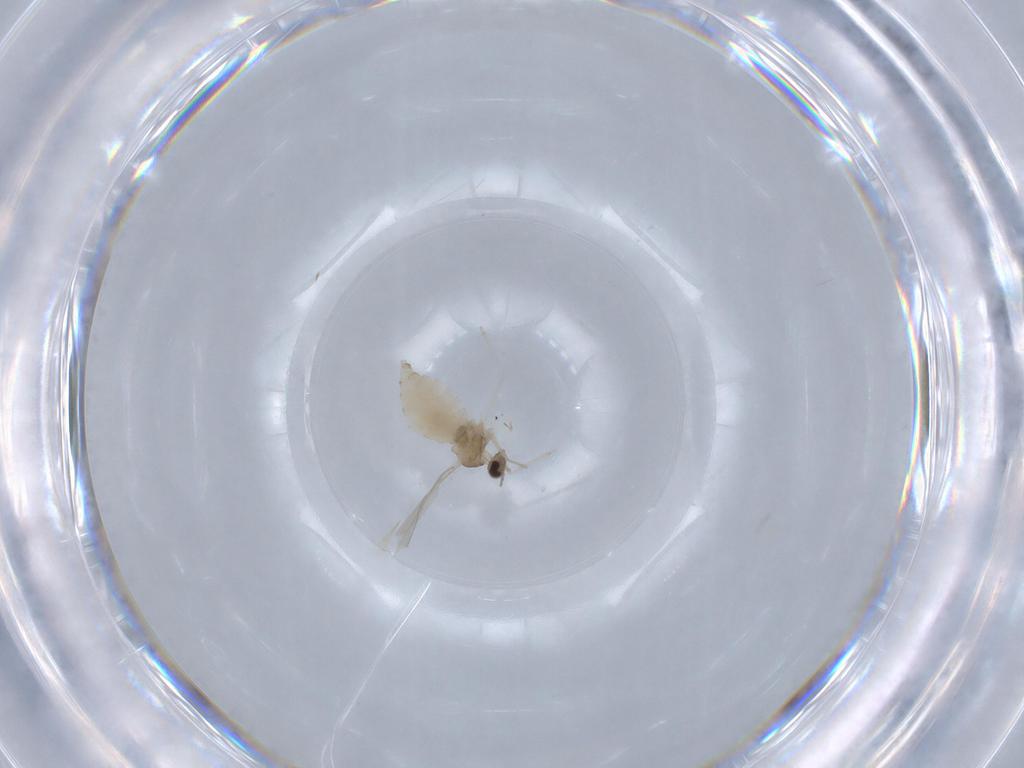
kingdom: Animalia
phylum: Arthropoda
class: Insecta
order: Diptera
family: Cecidomyiidae
